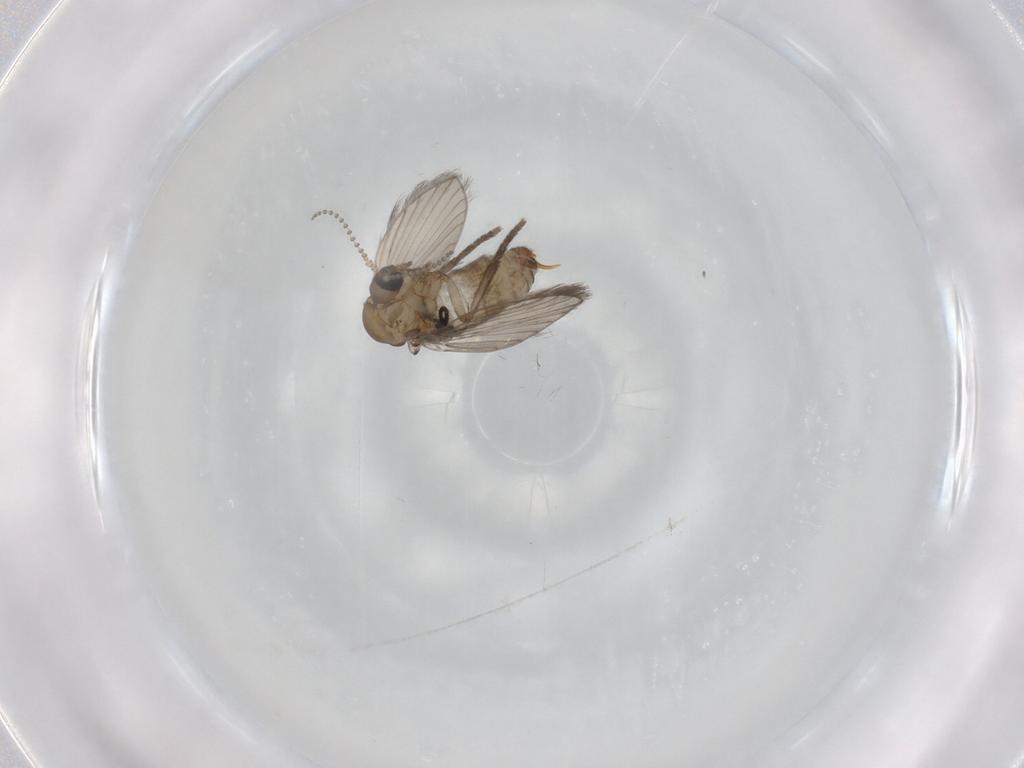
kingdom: Animalia
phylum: Arthropoda
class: Insecta
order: Diptera
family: Psychodidae
